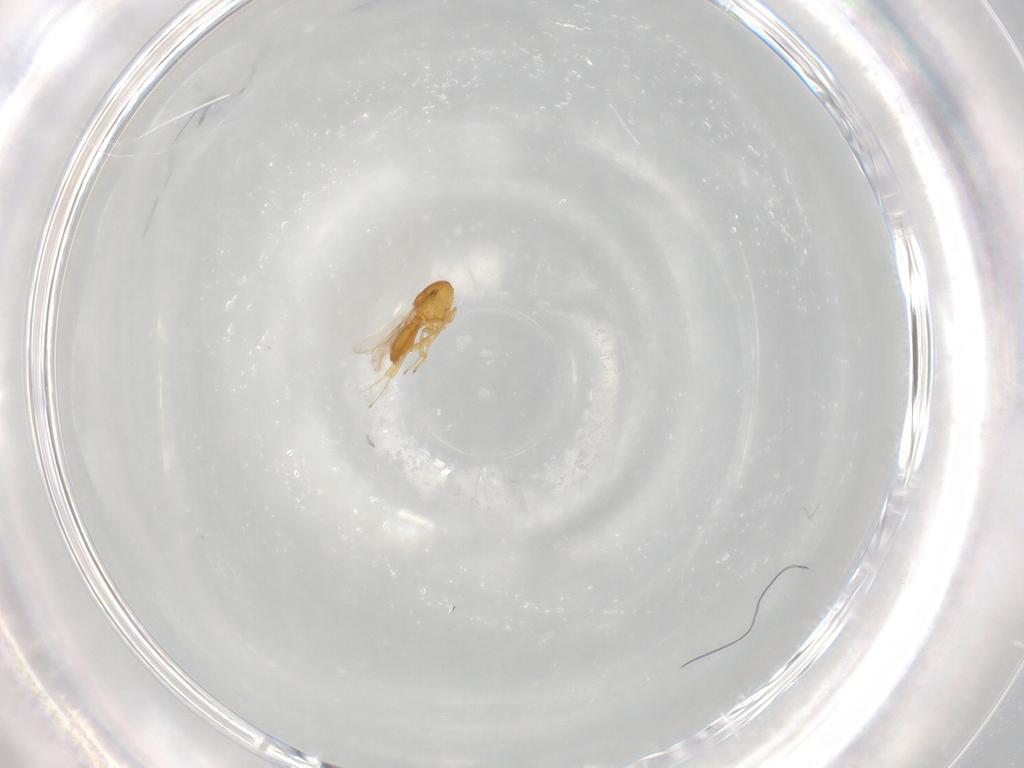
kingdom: Animalia
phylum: Arthropoda
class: Insecta
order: Hymenoptera
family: Scelionidae
